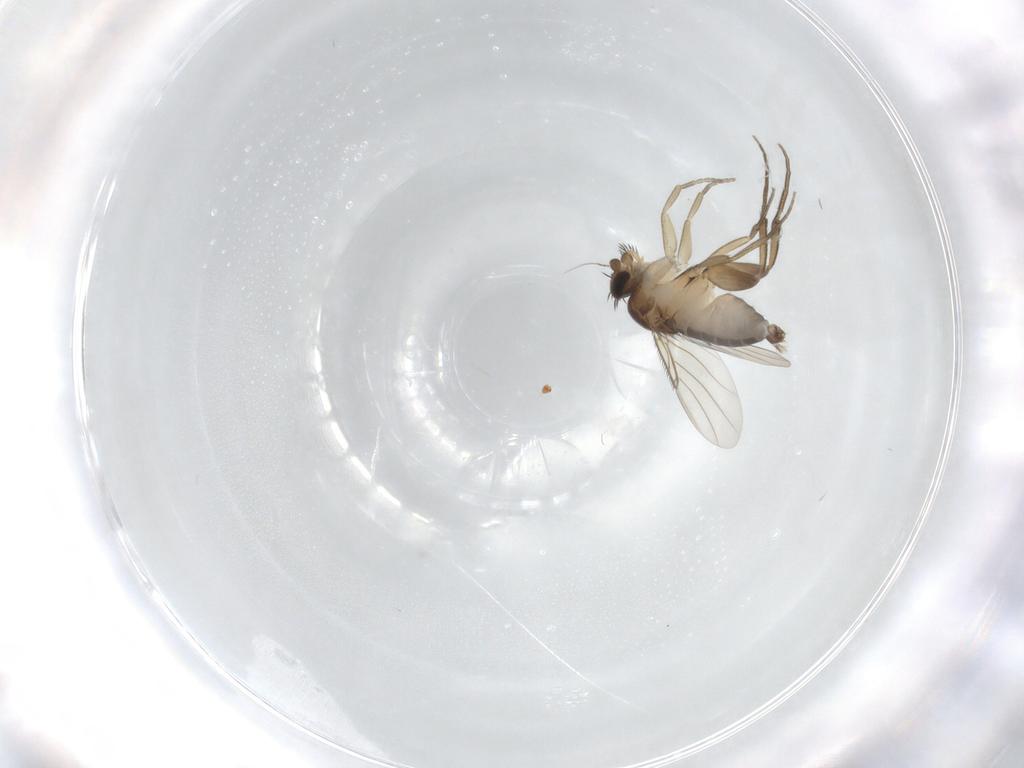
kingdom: Animalia
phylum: Arthropoda
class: Insecta
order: Diptera
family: Phoridae
